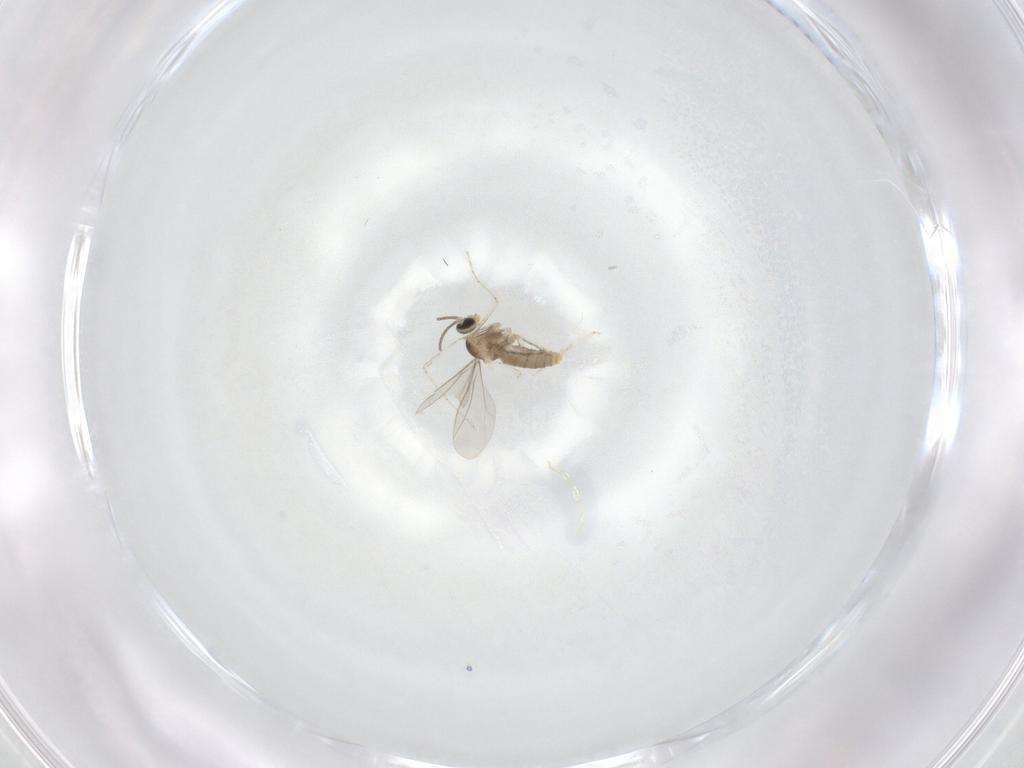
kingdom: Animalia
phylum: Arthropoda
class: Insecta
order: Diptera
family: Cecidomyiidae
